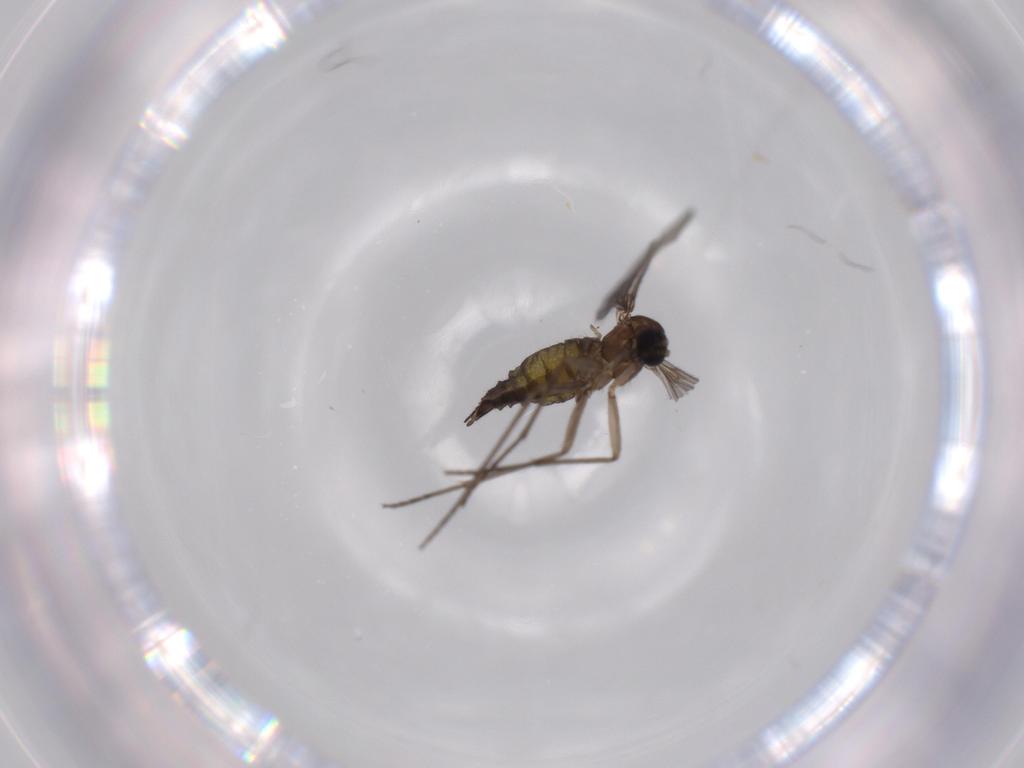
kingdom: Animalia
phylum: Arthropoda
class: Insecta
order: Diptera
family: Sciaridae
